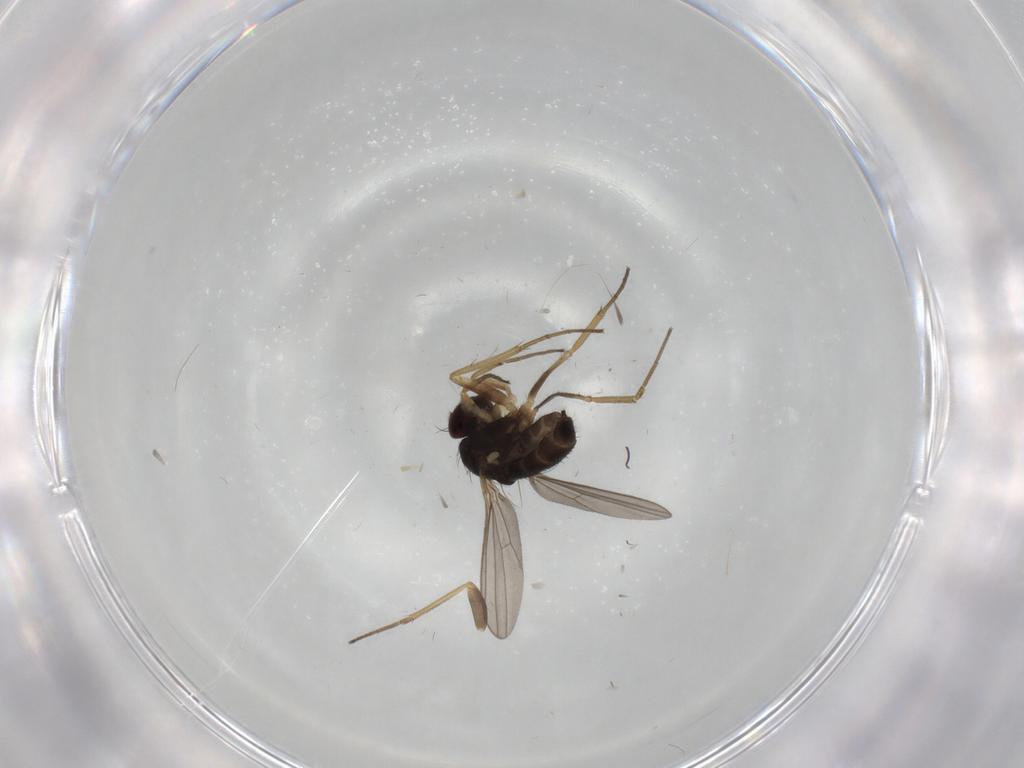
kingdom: Animalia
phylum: Arthropoda
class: Insecta
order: Diptera
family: Dolichopodidae
